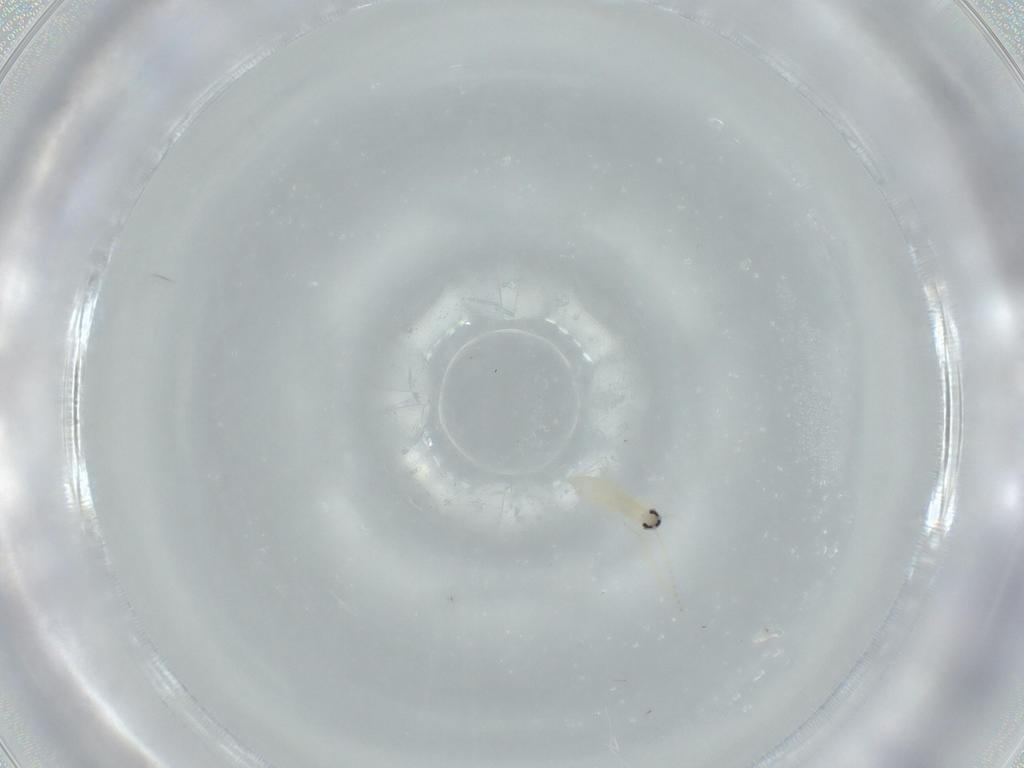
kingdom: Animalia
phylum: Arthropoda
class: Insecta
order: Diptera
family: Cecidomyiidae
